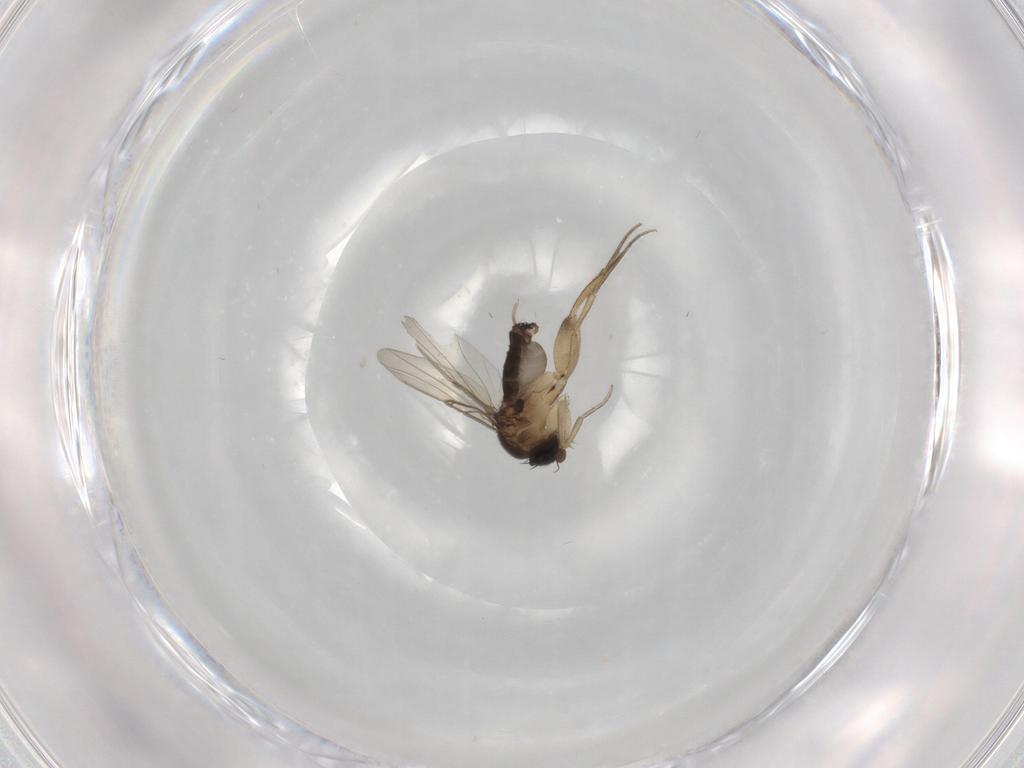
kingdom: Animalia
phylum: Arthropoda
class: Insecta
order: Diptera
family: Phoridae
